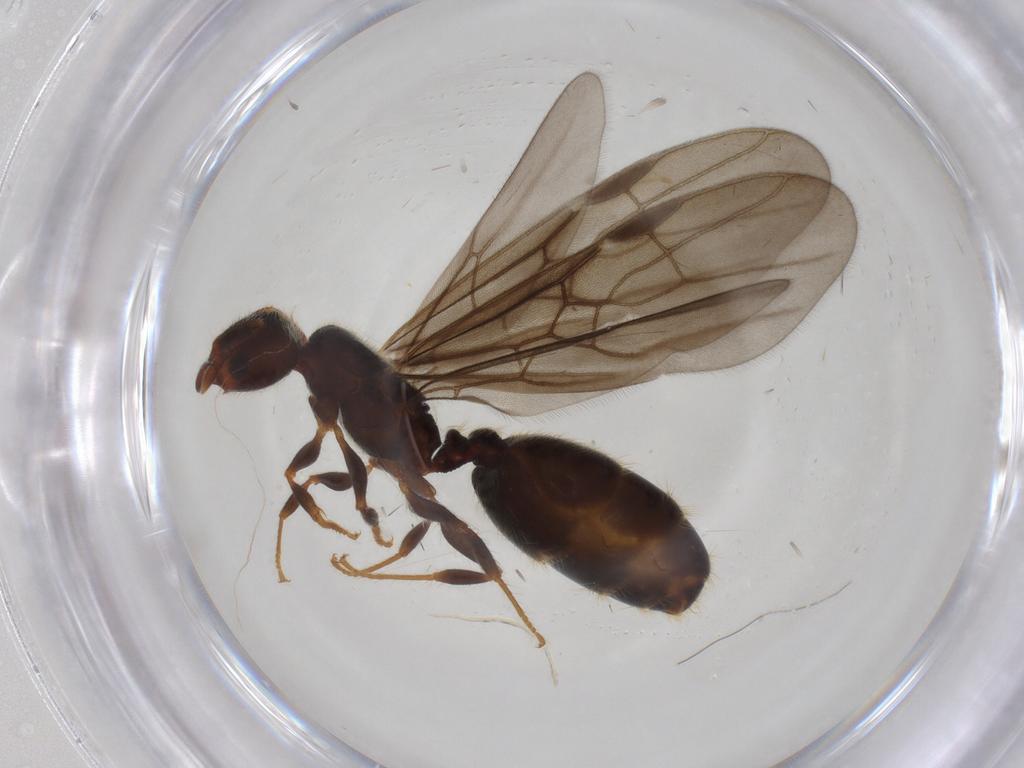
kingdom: Animalia
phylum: Arthropoda
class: Insecta
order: Hymenoptera
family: Formicidae
